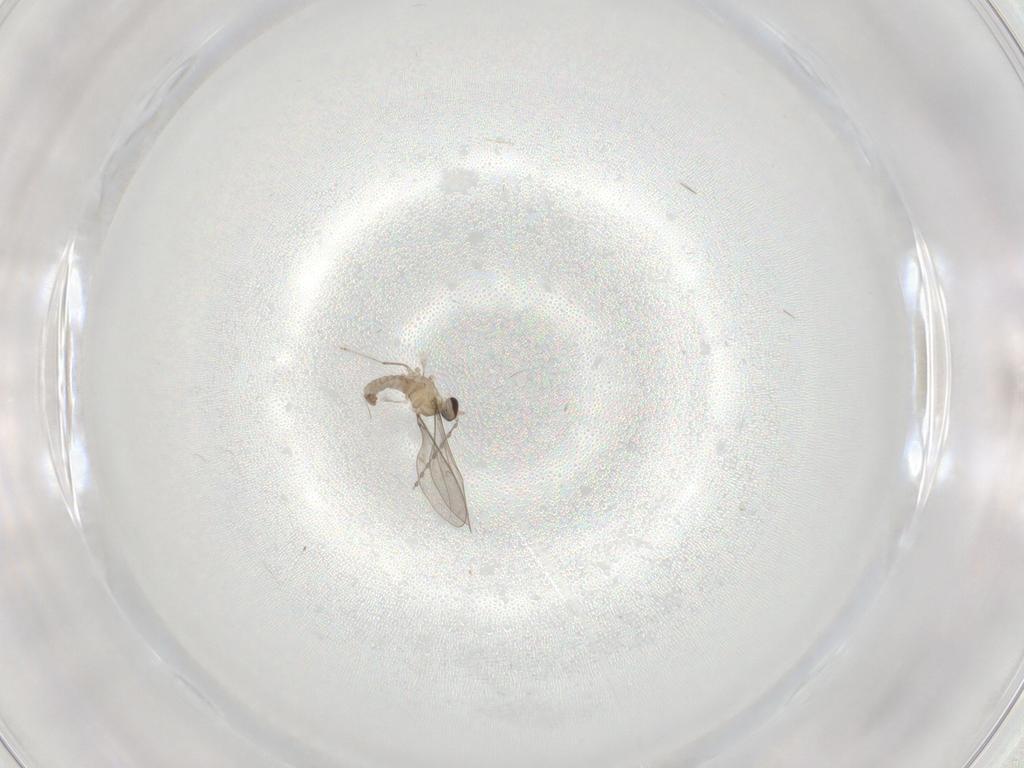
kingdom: Animalia
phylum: Arthropoda
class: Insecta
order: Diptera
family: Cecidomyiidae
